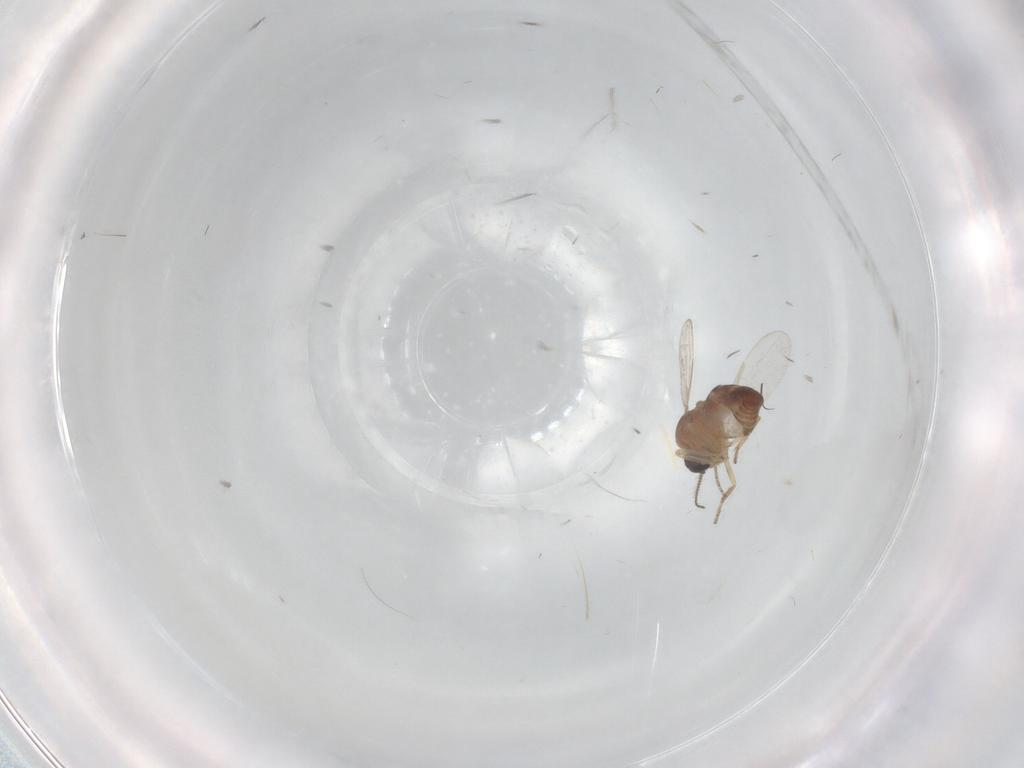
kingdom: Animalia
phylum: Arthropoda
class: Insecta
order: Diptera
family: Ceratopogonidae
